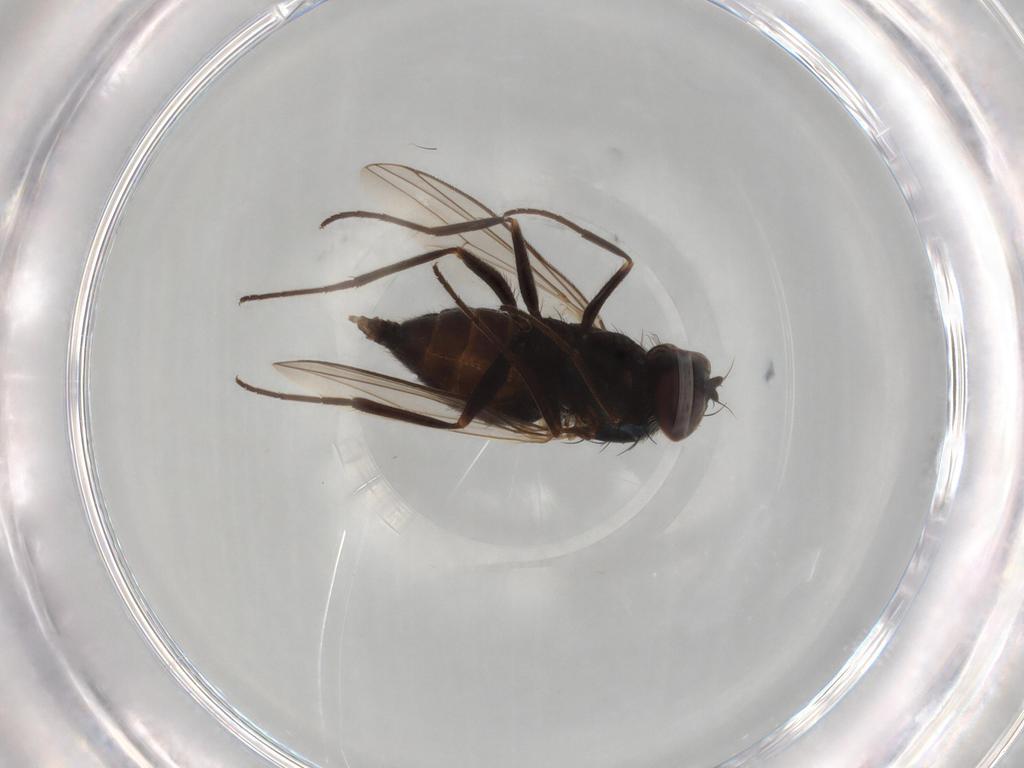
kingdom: Animalia
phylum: Arthropoda
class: Insecta
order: Diptera
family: Dolichopodidae
